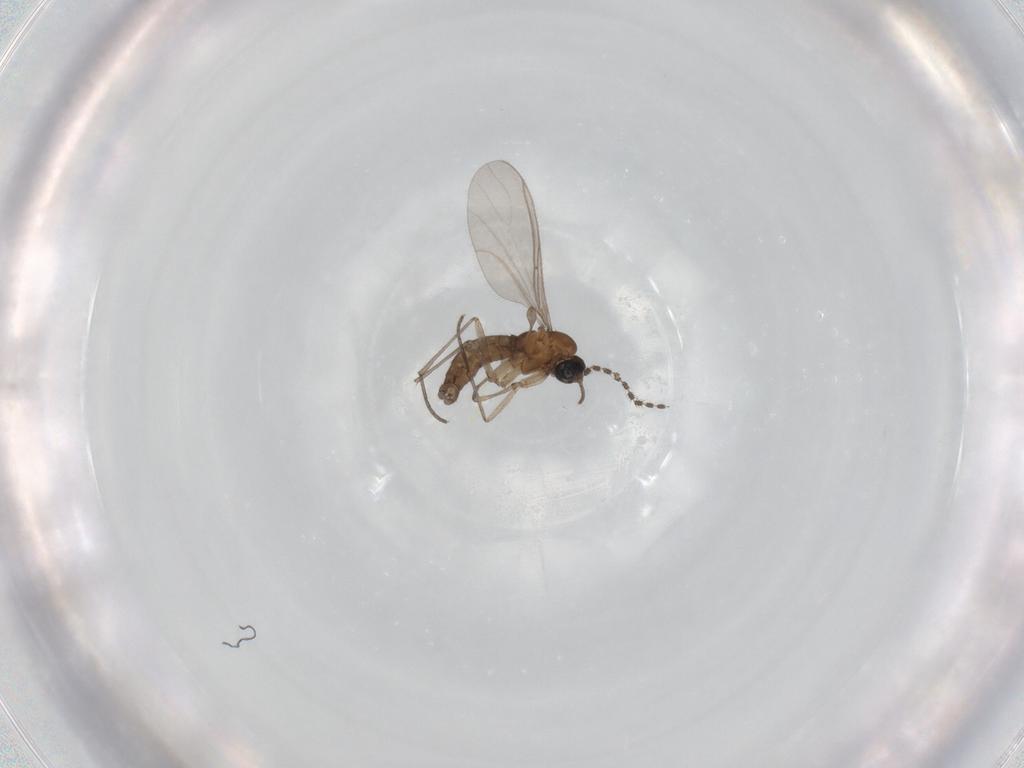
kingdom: Animalia
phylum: Arthropoda
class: Insecta
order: Diptera
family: Sciaridae
